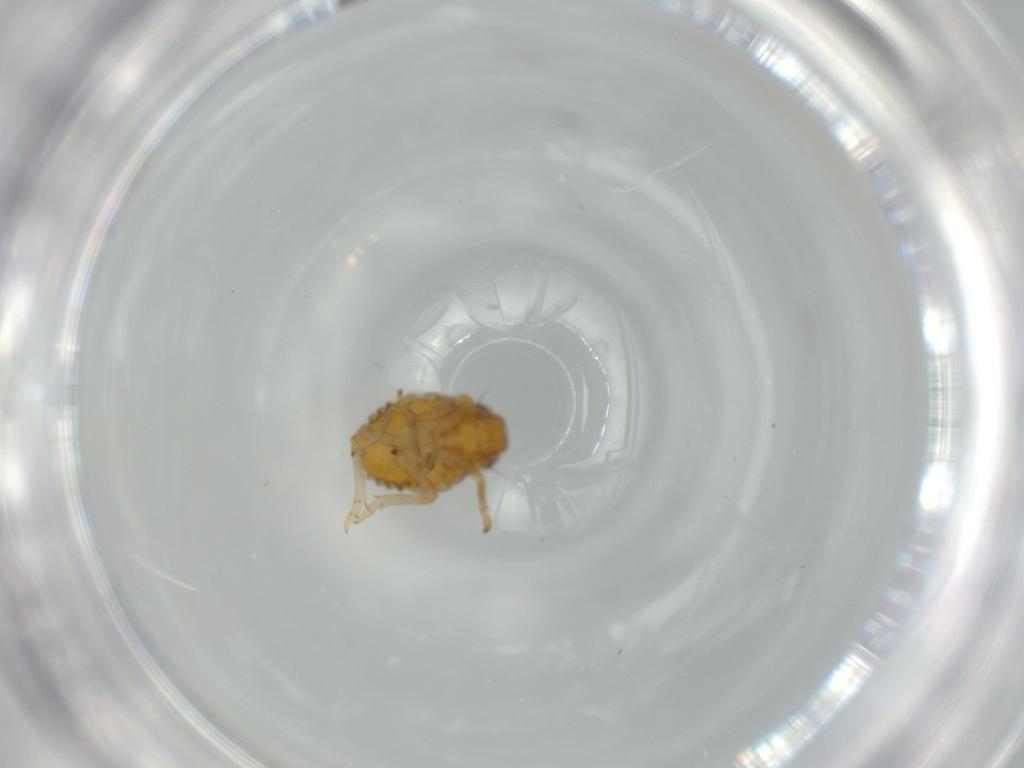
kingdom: Animalia
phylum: Arthropoda
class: Insecta
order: Hemiptera
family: Issidae
